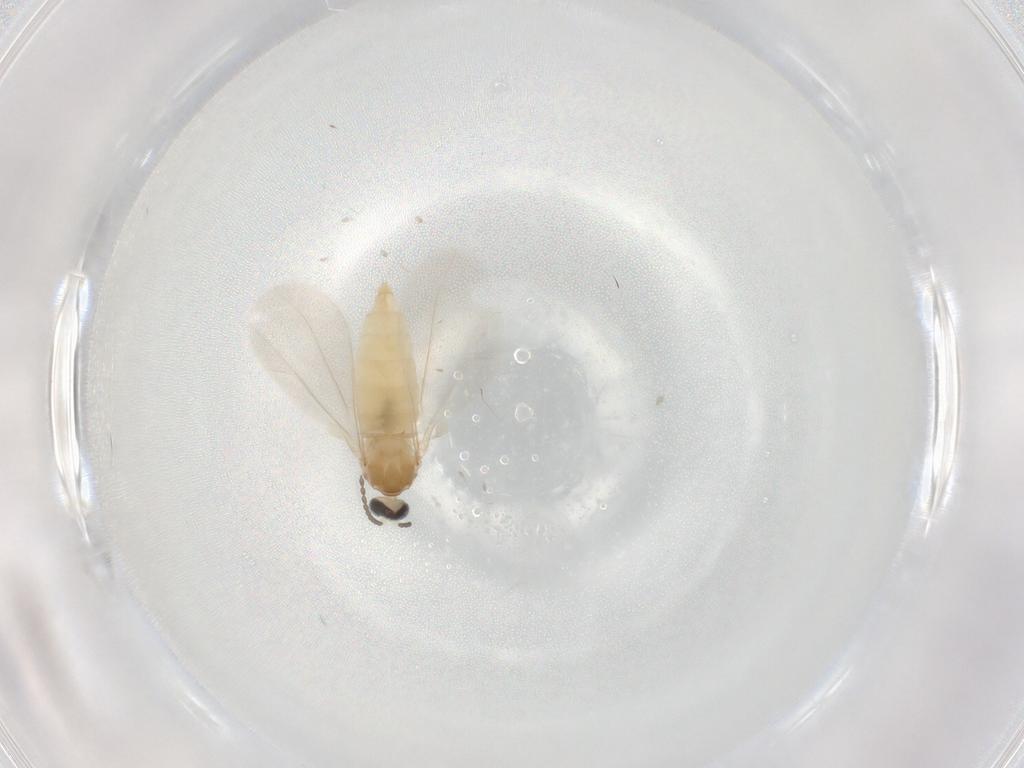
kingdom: Animalia
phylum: Arthropoda
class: Insecta
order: Diptera
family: Cecidomyiidae
